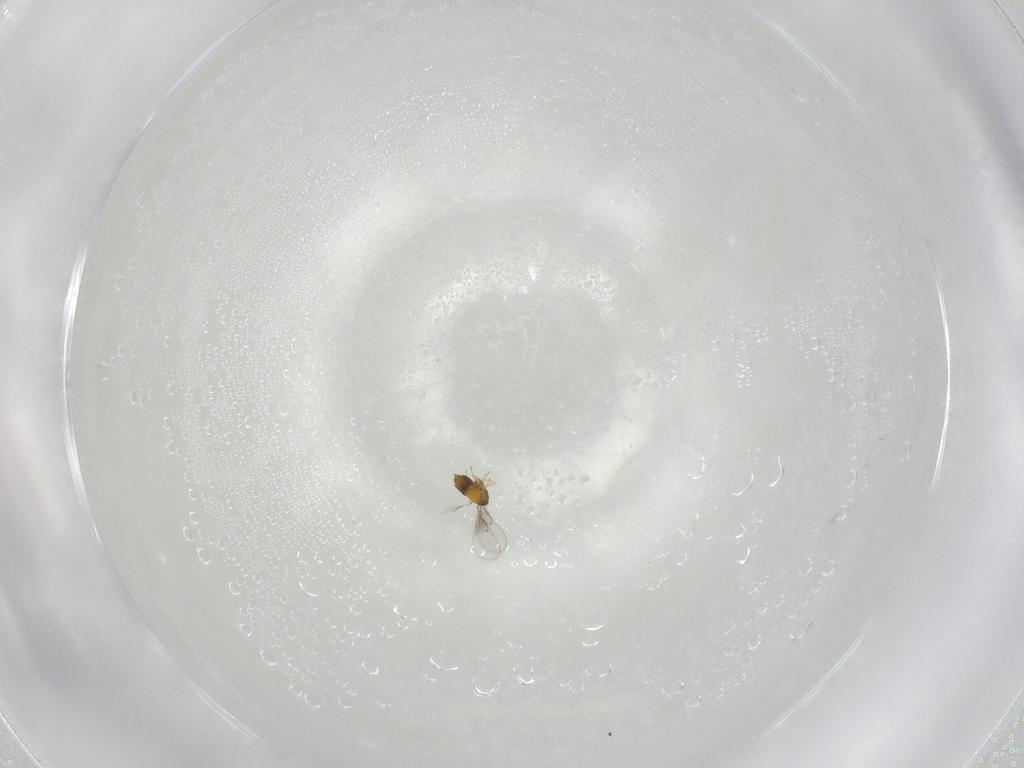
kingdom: Animalia
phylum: Arthropoda
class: Insecta
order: Hymenoptera
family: Trichogrammatidae
